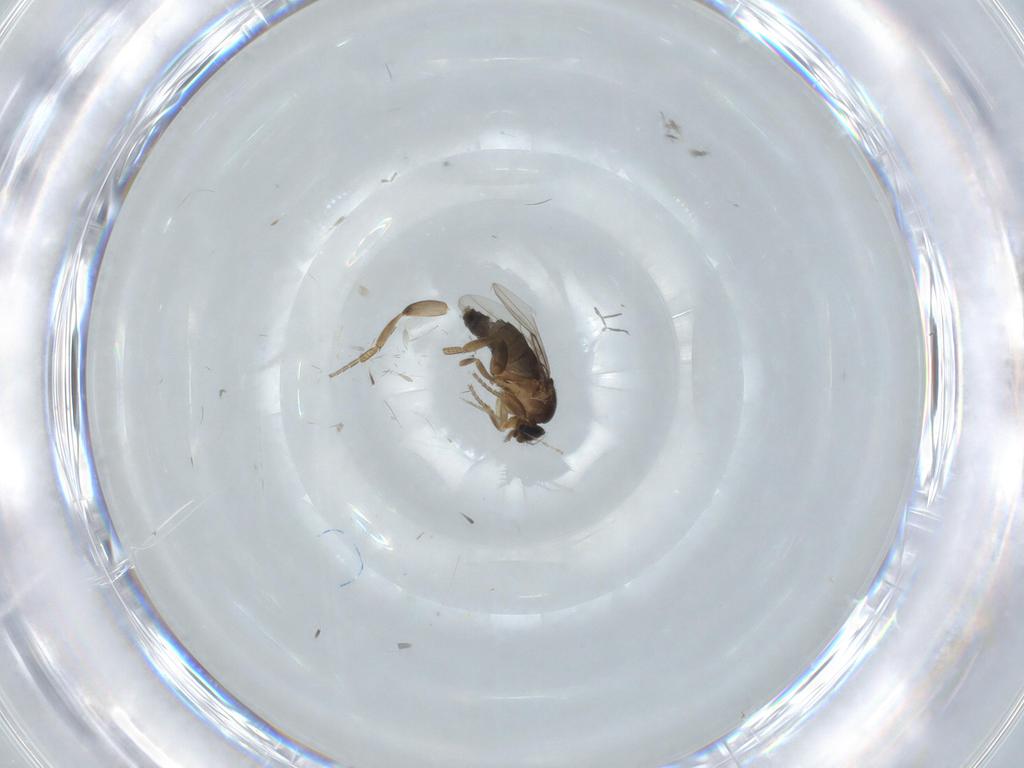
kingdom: Animalia
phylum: Arthropoda
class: Insecta
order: Diptera
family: Phoridae
